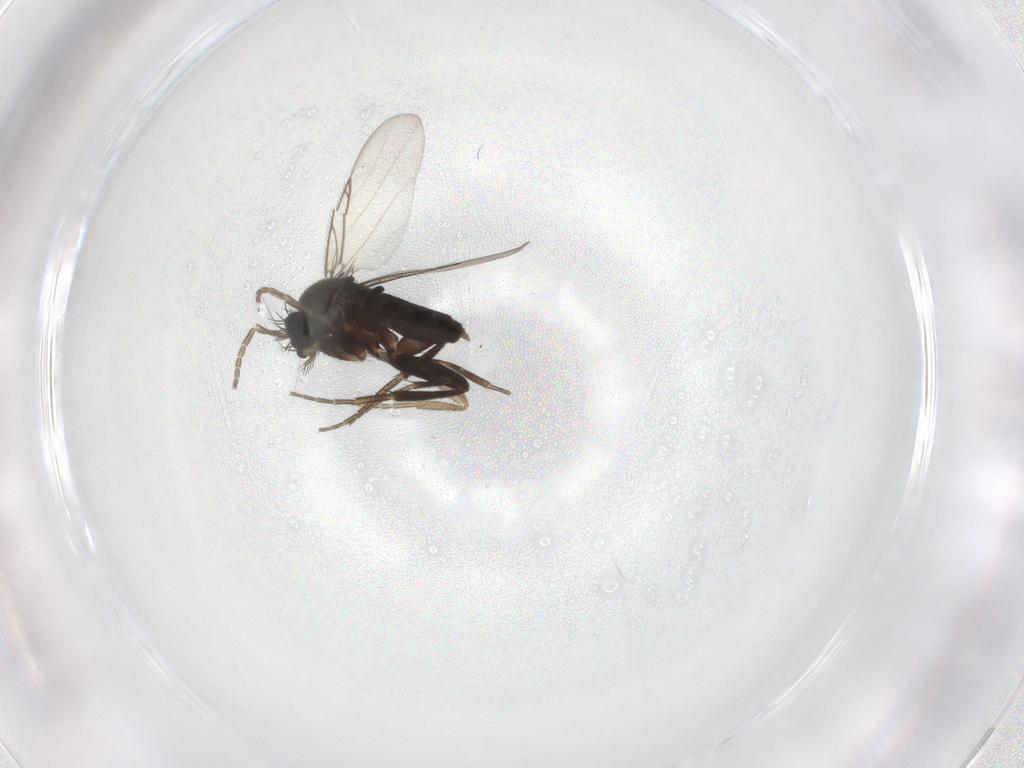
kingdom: Animalia
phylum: Arthropoda
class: Insecta
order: Diptera
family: Phoridae
